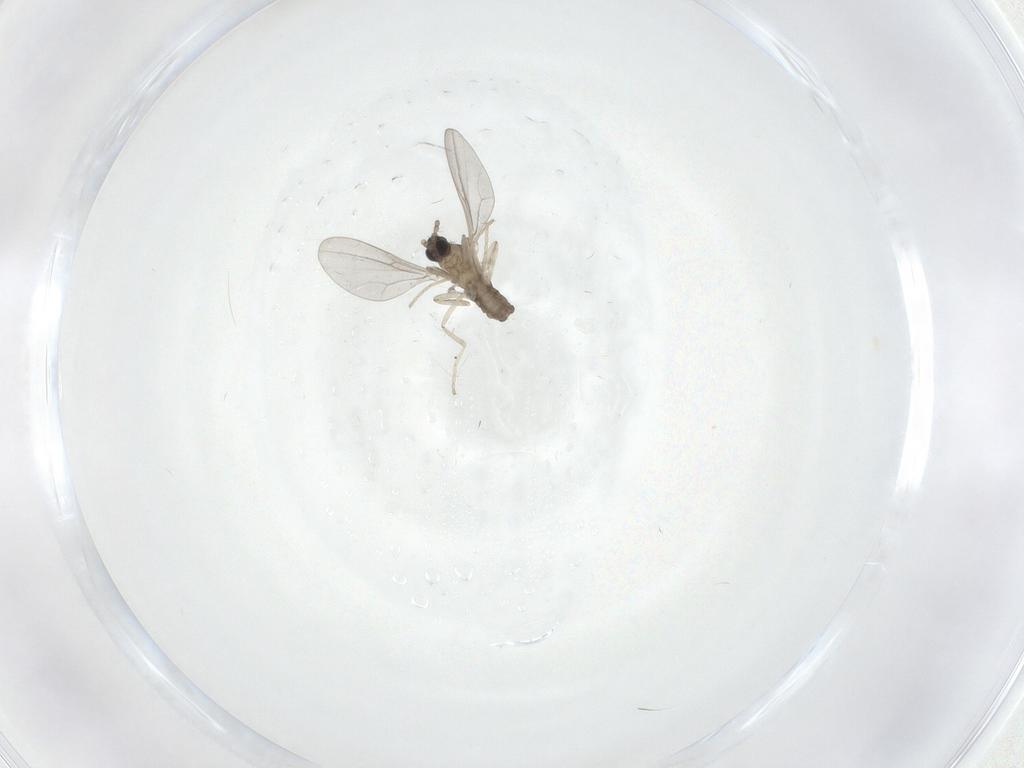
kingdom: Animalia
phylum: Arthropoda
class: Insecta
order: Diptera
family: Cecidomyiidae
